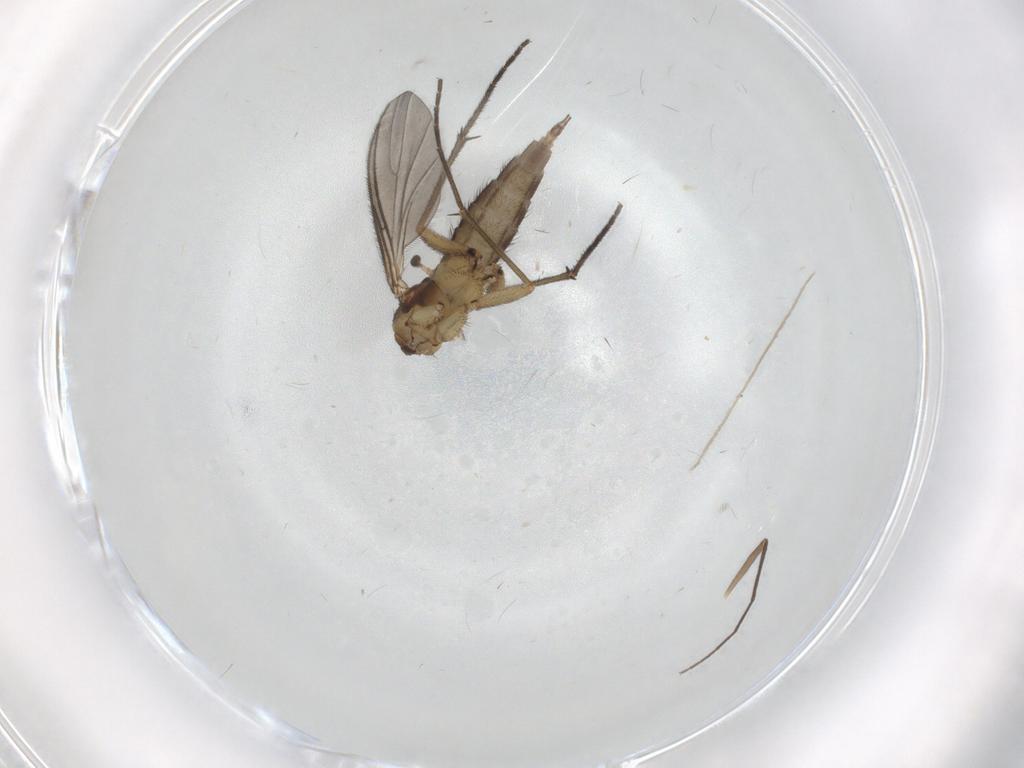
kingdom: Animalia
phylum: Arthropoda
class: Insecta
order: Diptera
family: Sciaridae
